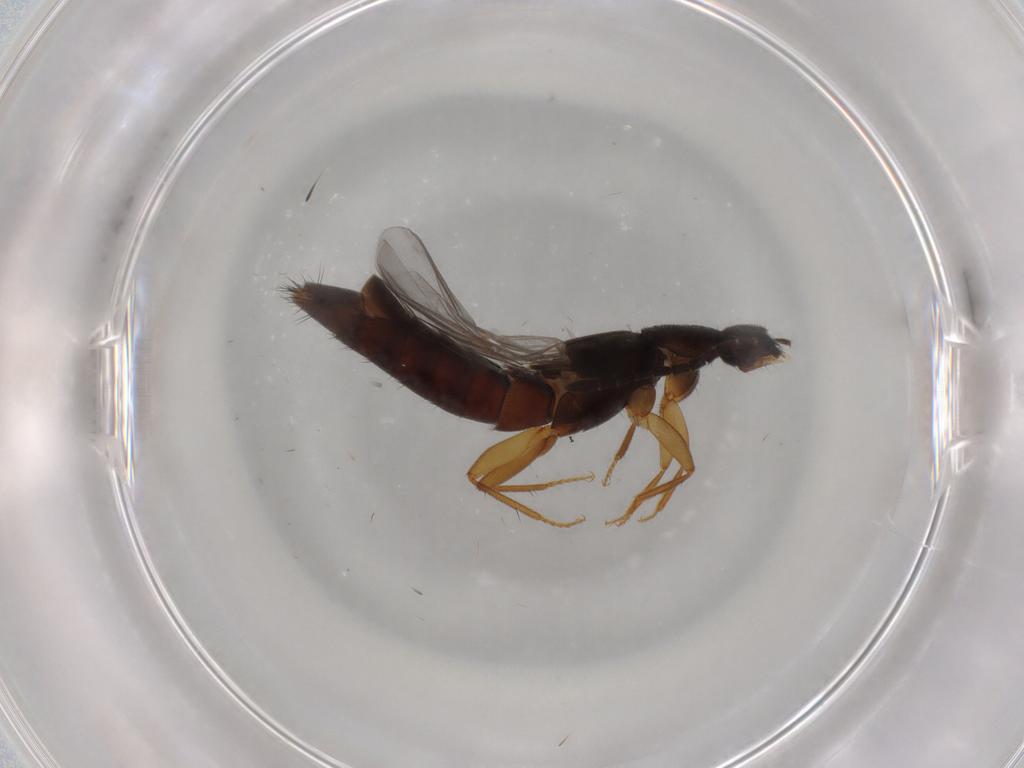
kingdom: Animalia
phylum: Arthropoda
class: Insecta
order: Coleoptera
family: Staphylinidae
